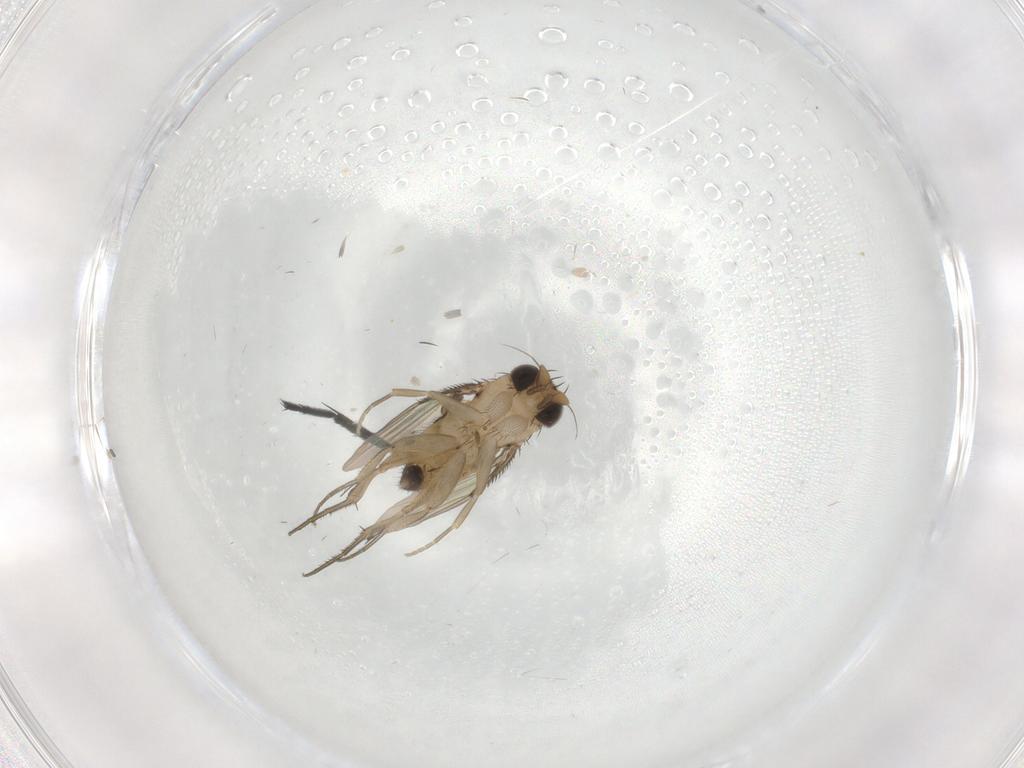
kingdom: Animalia
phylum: Arthropoda
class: Insecta
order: Diptera
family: Milichiidae
